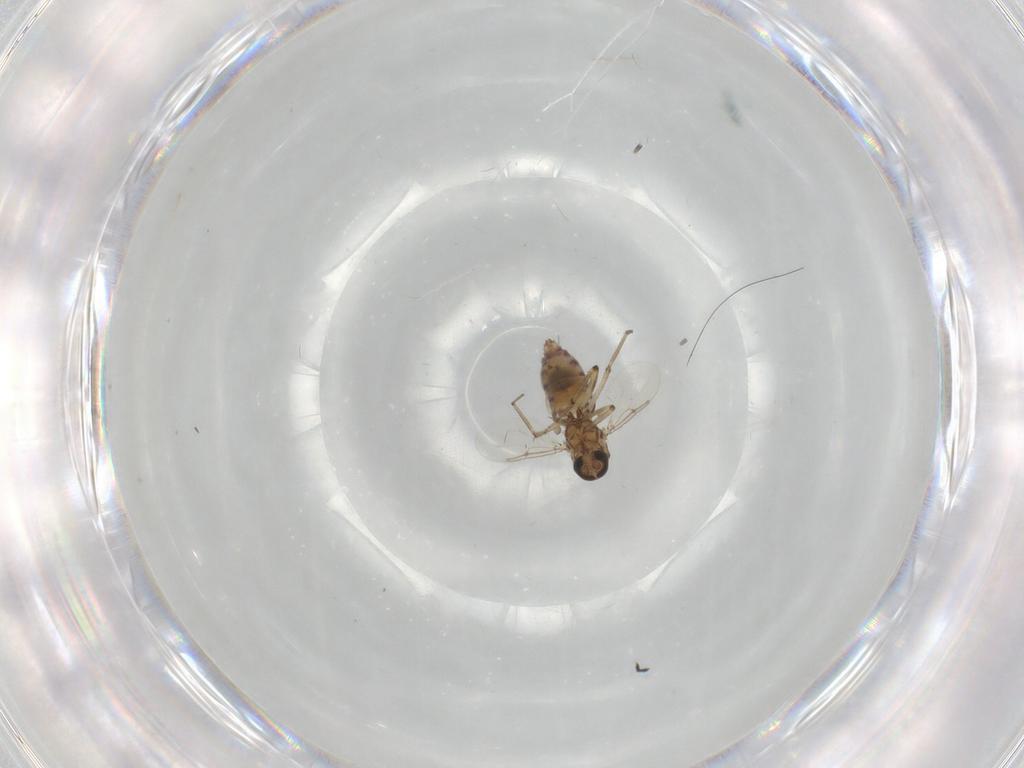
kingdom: Animalia
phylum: Arthropoda
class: Insecta
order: Diptera
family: Ceratopogonidae
